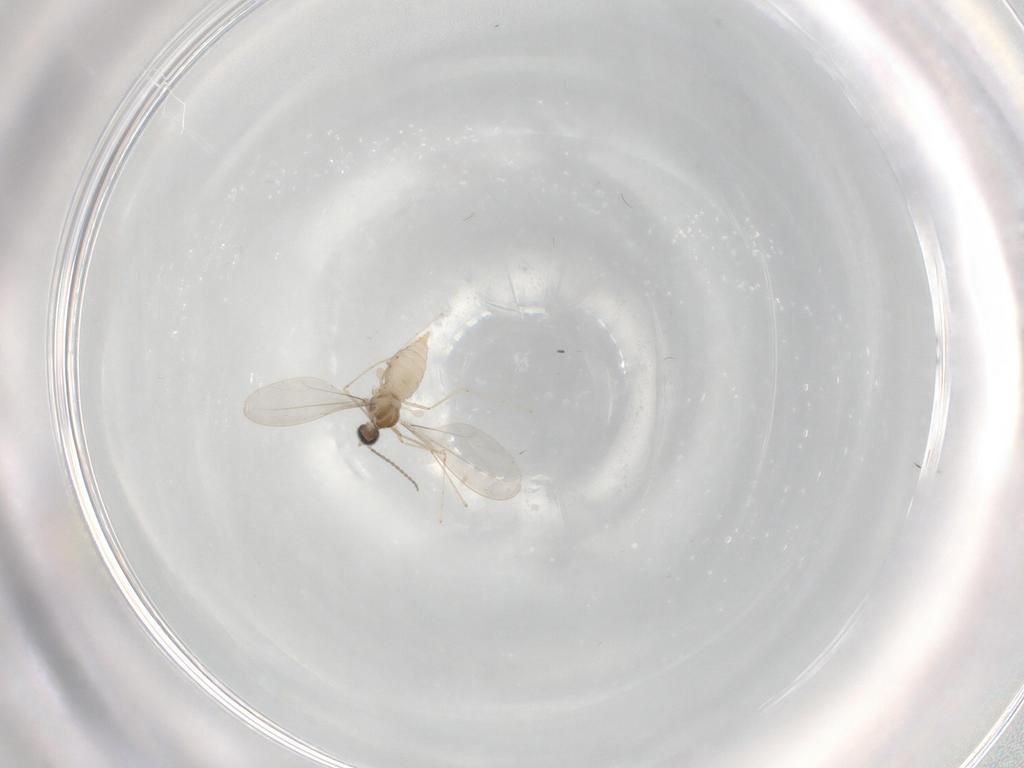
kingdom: Animalia
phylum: Arthropoda
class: Insecta
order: Diptera
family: Cecidomyiidae
